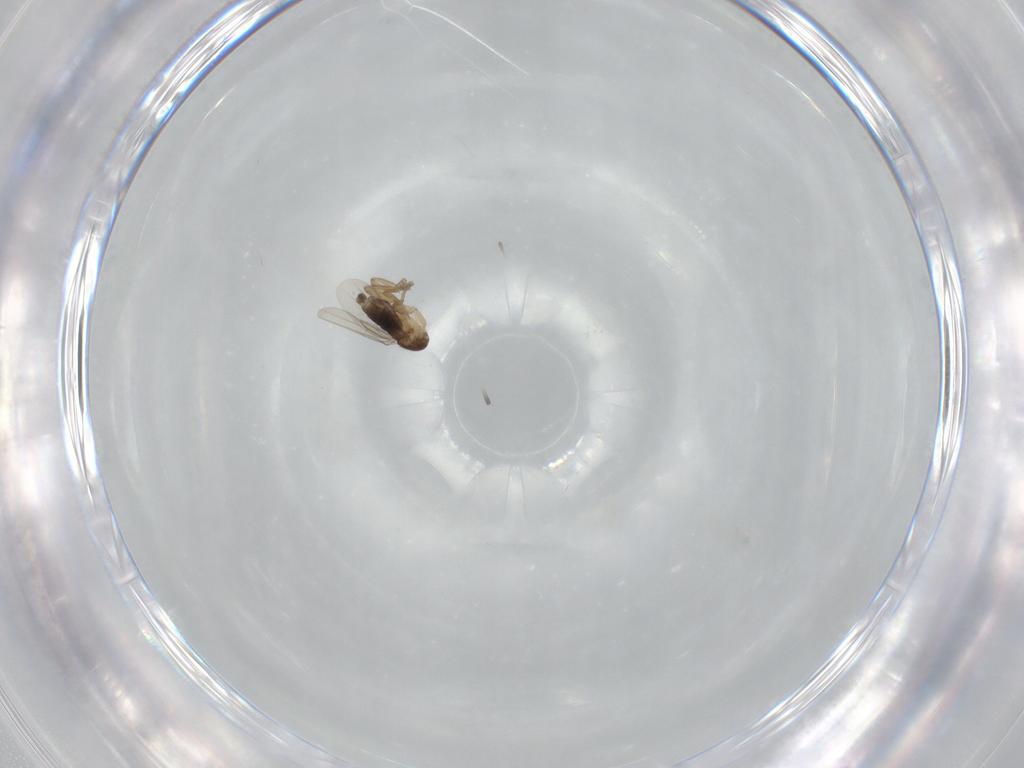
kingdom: Animalia
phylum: Arthropoda
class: Insecta
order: Diptera
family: Phoridae
